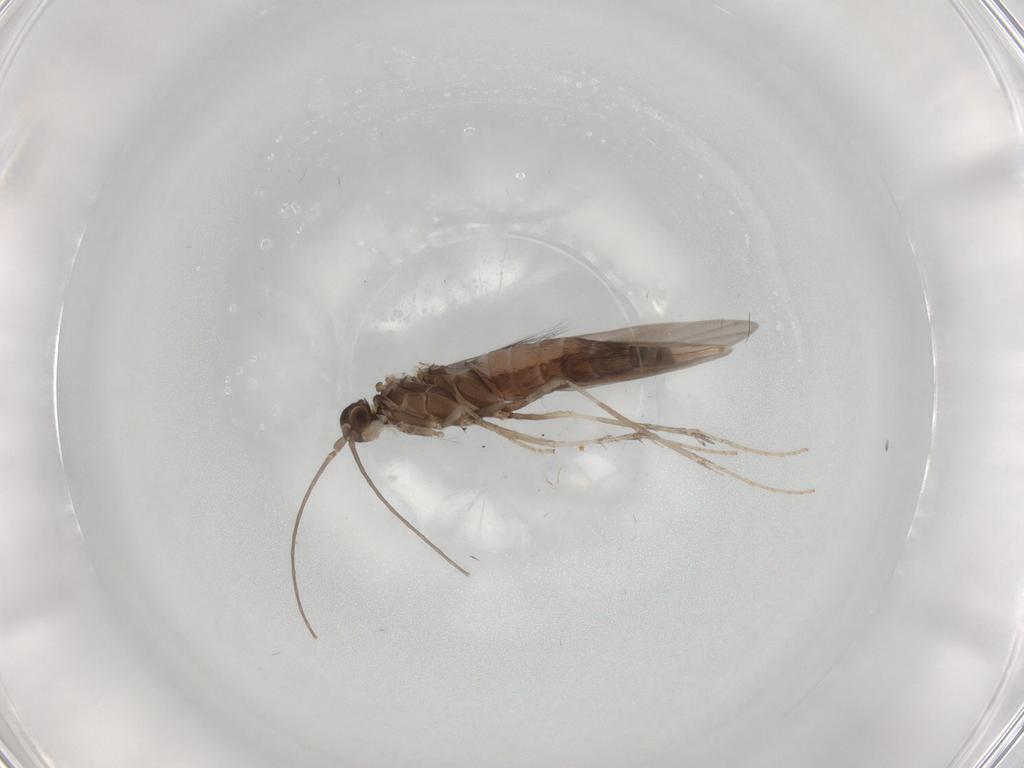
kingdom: Animalia
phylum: Arthropoda
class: Insecta
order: Trichoptera
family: Xiphocentronidae
